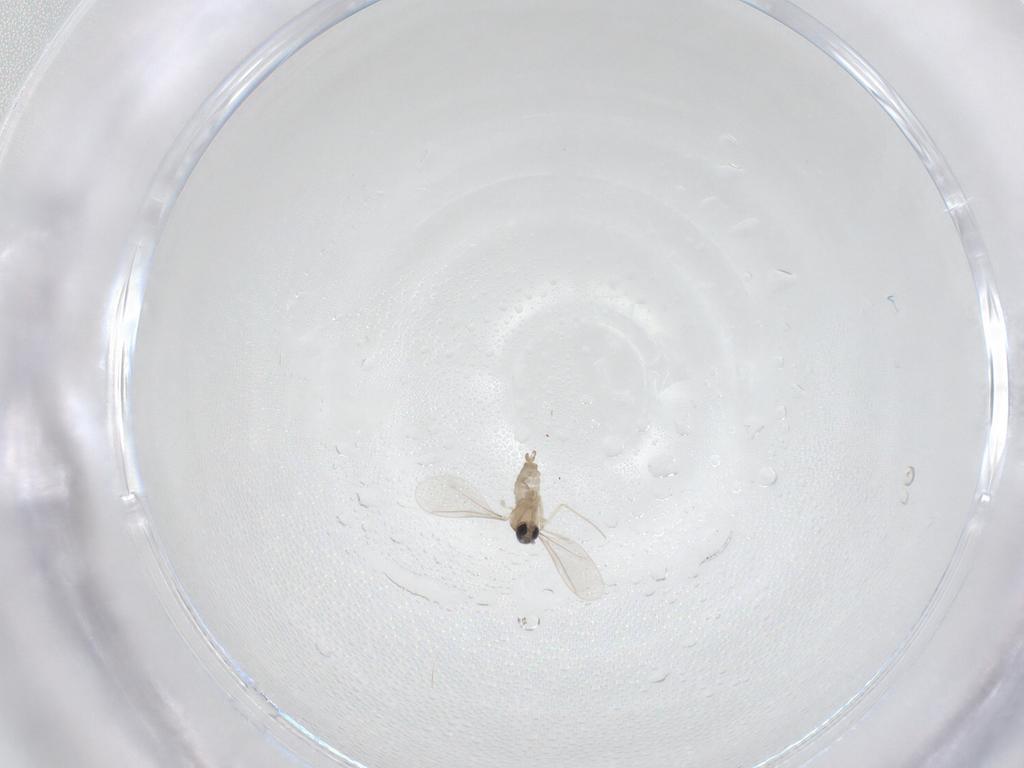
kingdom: Animalia
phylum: Arthropoda
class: Insecta
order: Diptera
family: Cecidomyiidae
